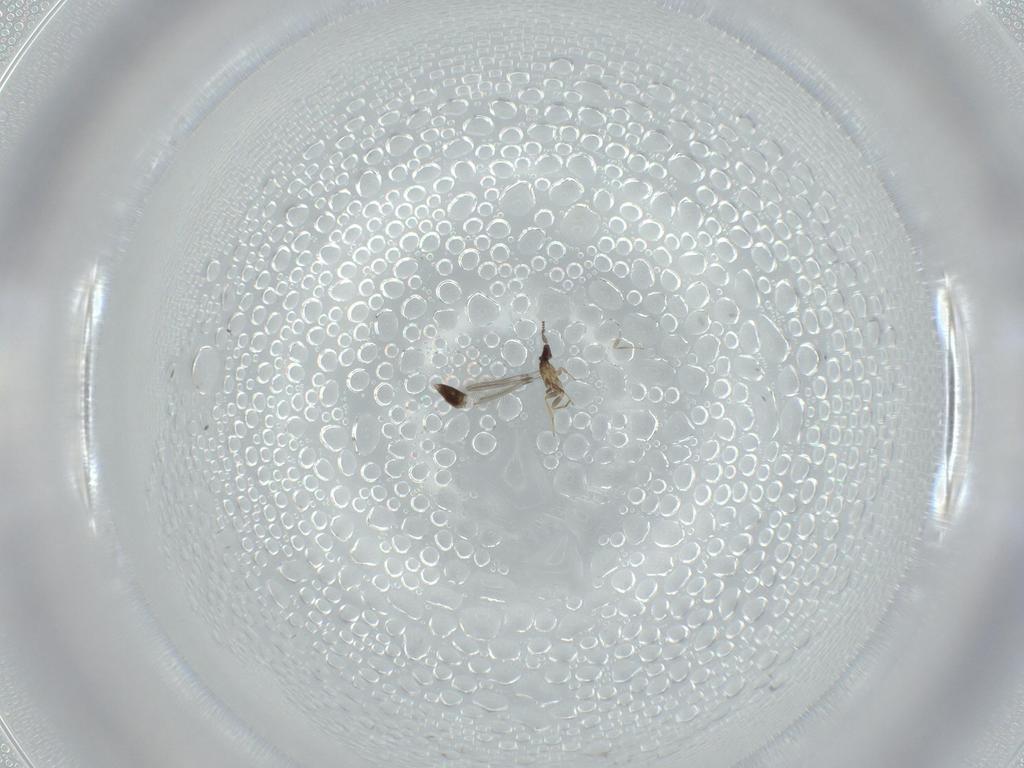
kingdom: Animalia
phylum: Arthropoda
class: Insecta
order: Hymenoptera
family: Mymaridae
